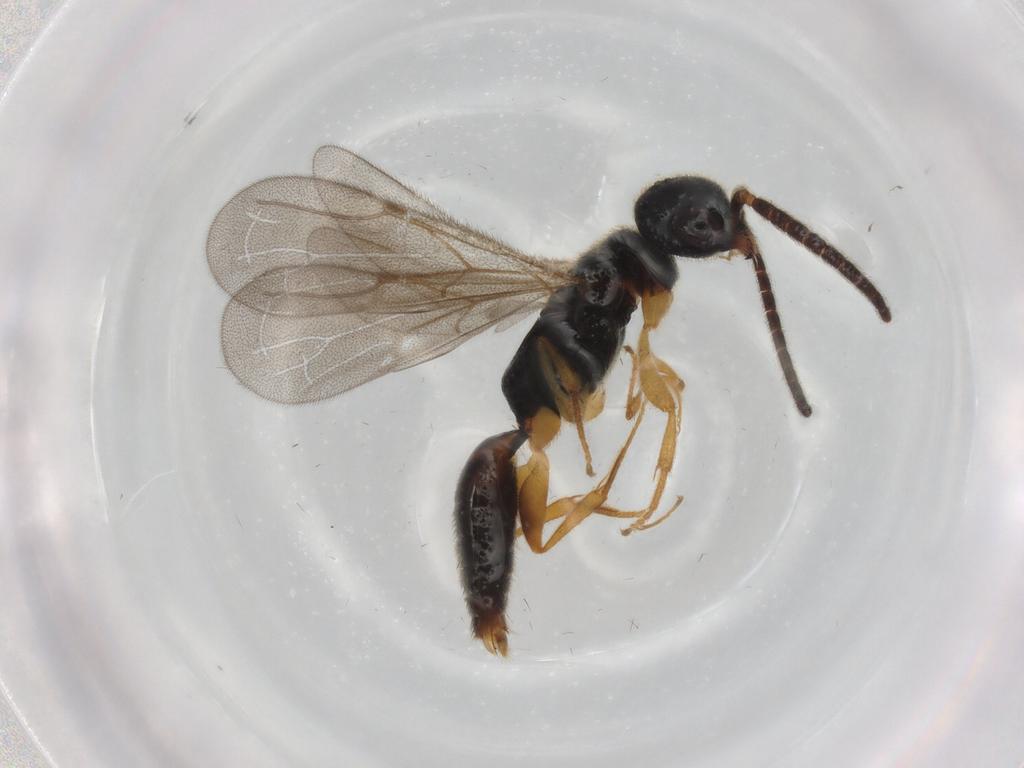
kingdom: Animalia
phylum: Arthropoda
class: Insecta
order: Hymenoptera
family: Bethylidae
